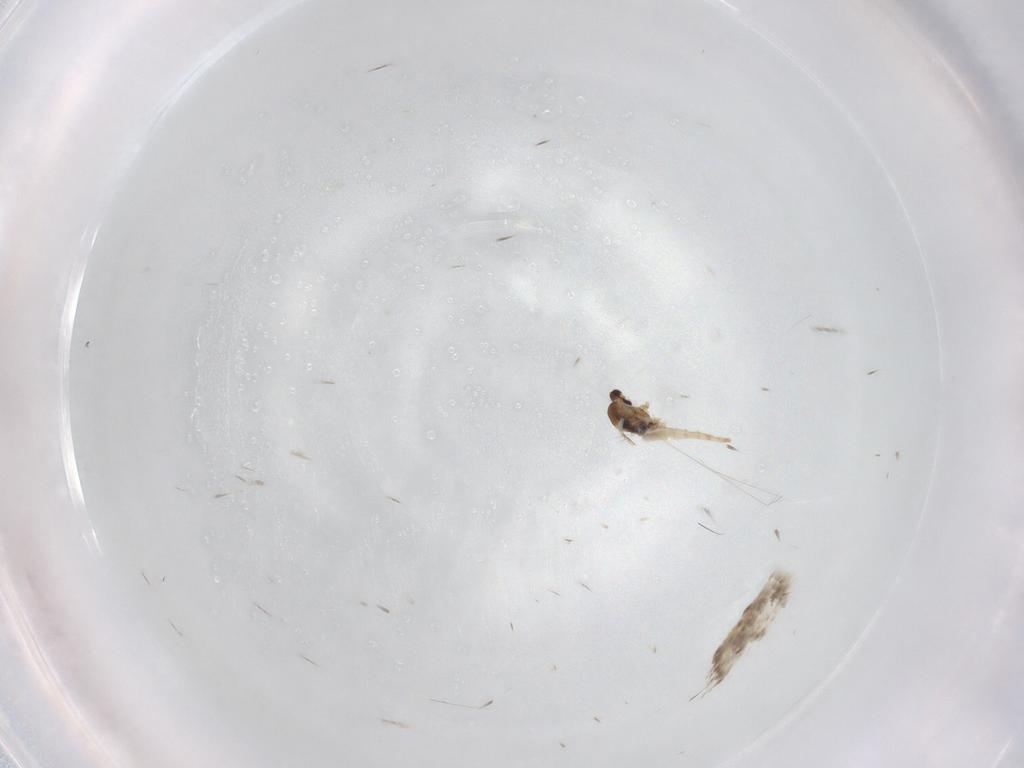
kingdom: Animalia
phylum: Arthropoda
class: Insecta
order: Diptera
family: Cecidomyiidae
